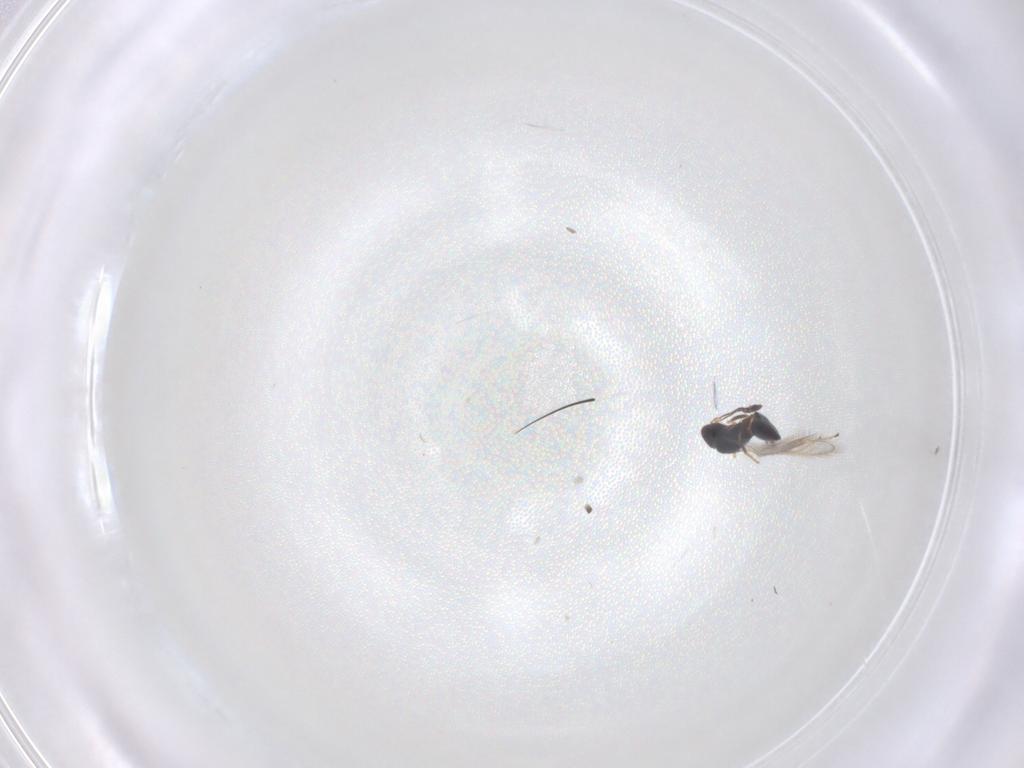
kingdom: Animalia
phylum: Arthropoda
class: Insecta
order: Hymenoptera
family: Mymaridae
